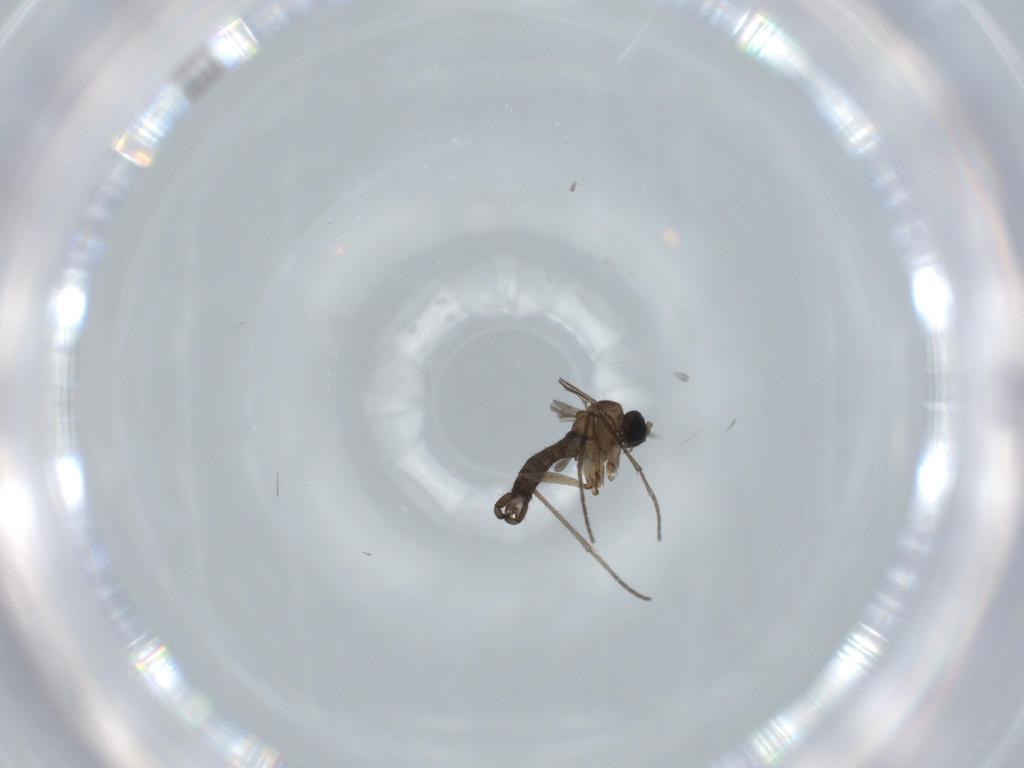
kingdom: Animalia
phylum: Arthropoda
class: Insecta
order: Diptera
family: Sciaridae
